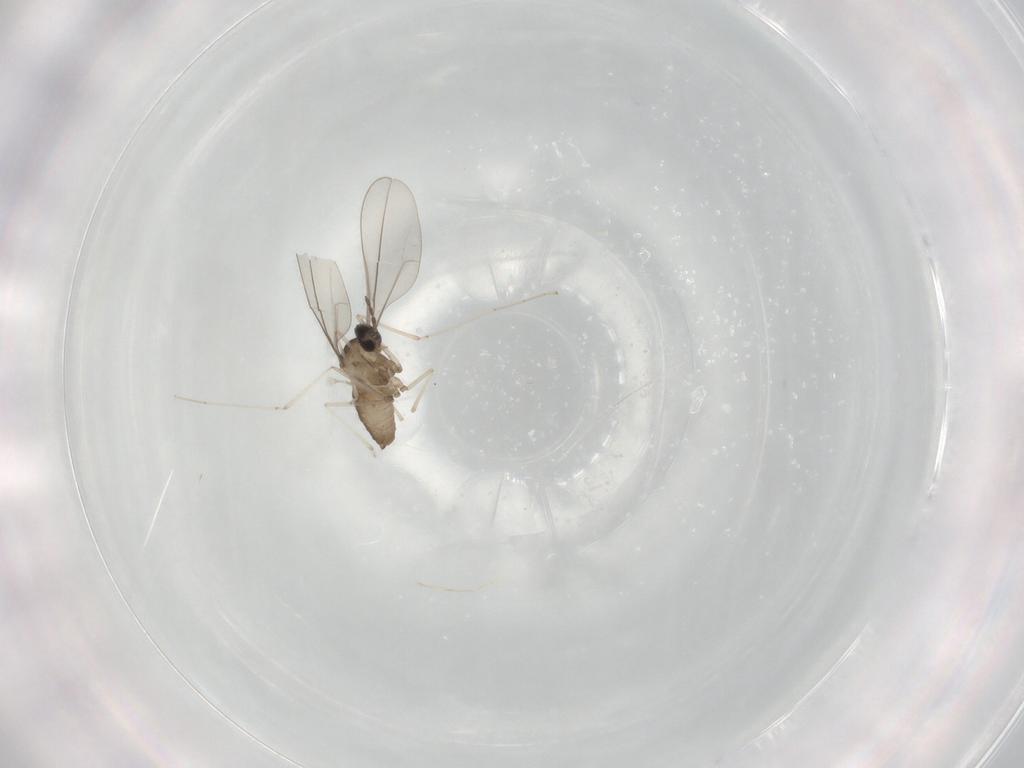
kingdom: Animalia
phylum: Arthropoda
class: Insecta
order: Diptera
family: Cecidomyiidae
